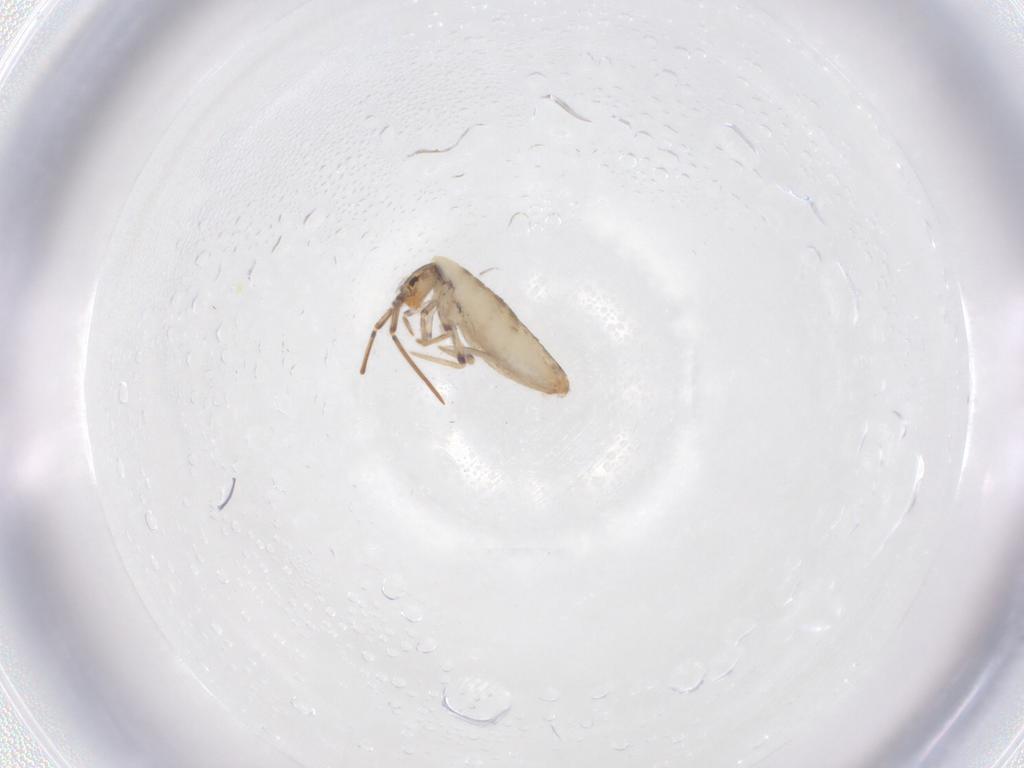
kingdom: Animalia
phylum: Arthropoda
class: Collembola
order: Entomobryomorpha
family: Entomobryidae
